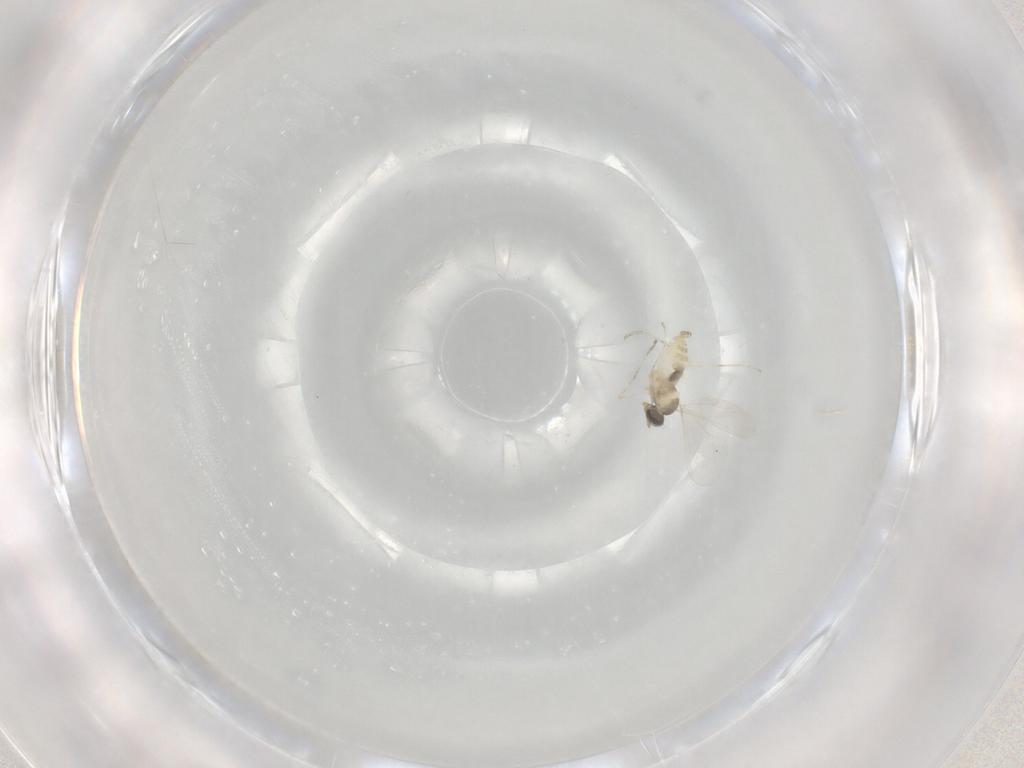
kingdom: Animalia
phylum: Arthropoda
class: Insecta
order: Diptera
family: Cecidomyiidae
